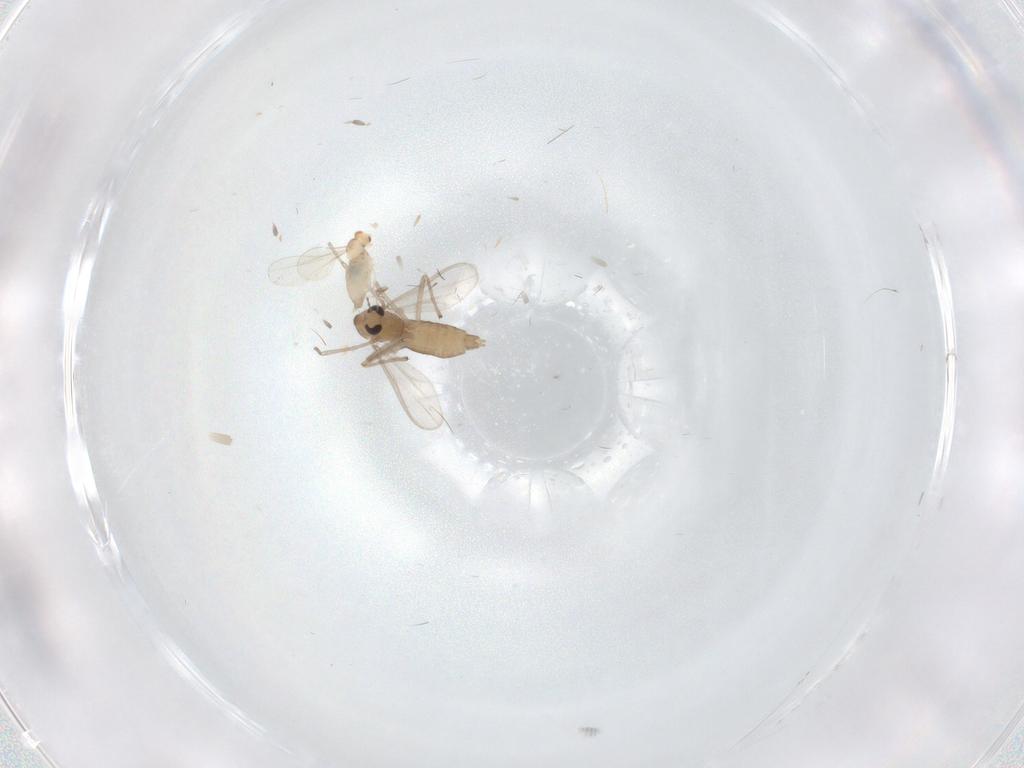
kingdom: Animalia
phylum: Arthropoda
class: Insecta
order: Diptera
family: Chironomidae
